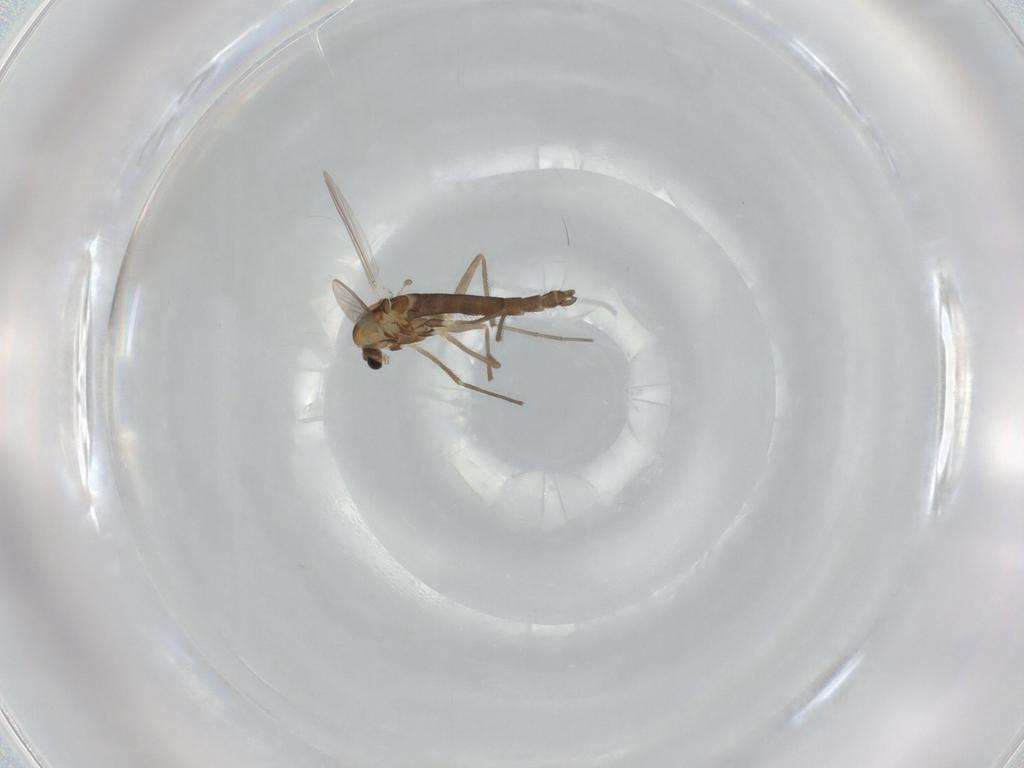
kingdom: Animalia
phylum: Arthropoda
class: Insecta
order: Diptera
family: Chironomidae
